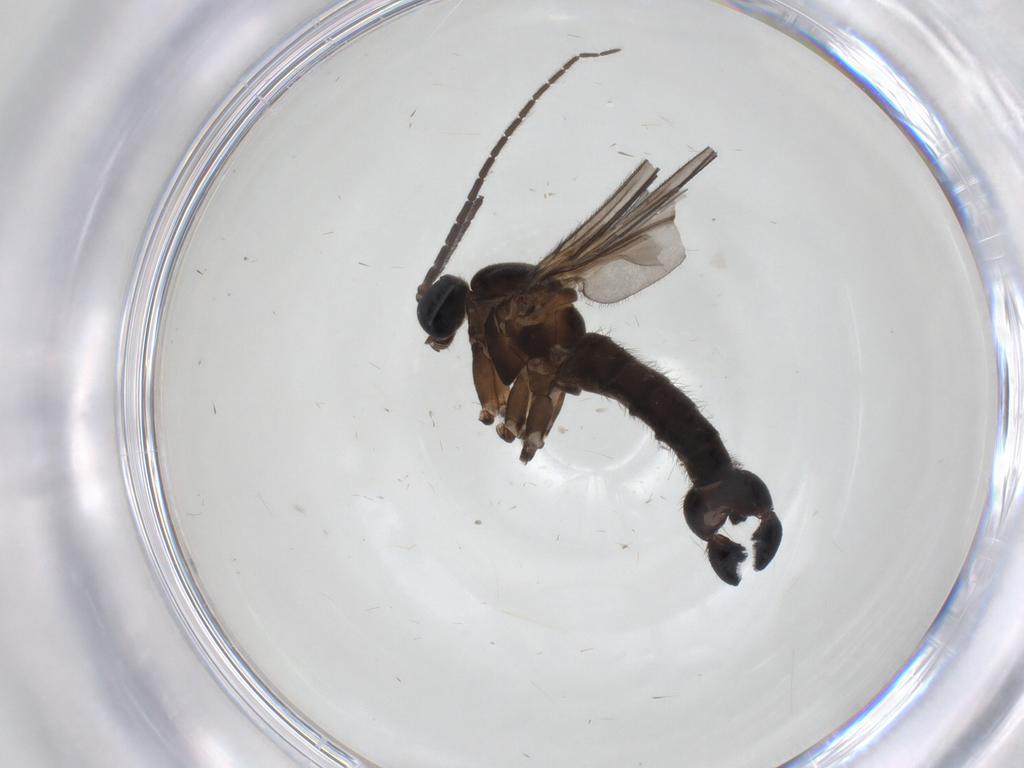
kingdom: Animalia
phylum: Arthropoda
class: Insecta
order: Diptera
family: Sciaridae
